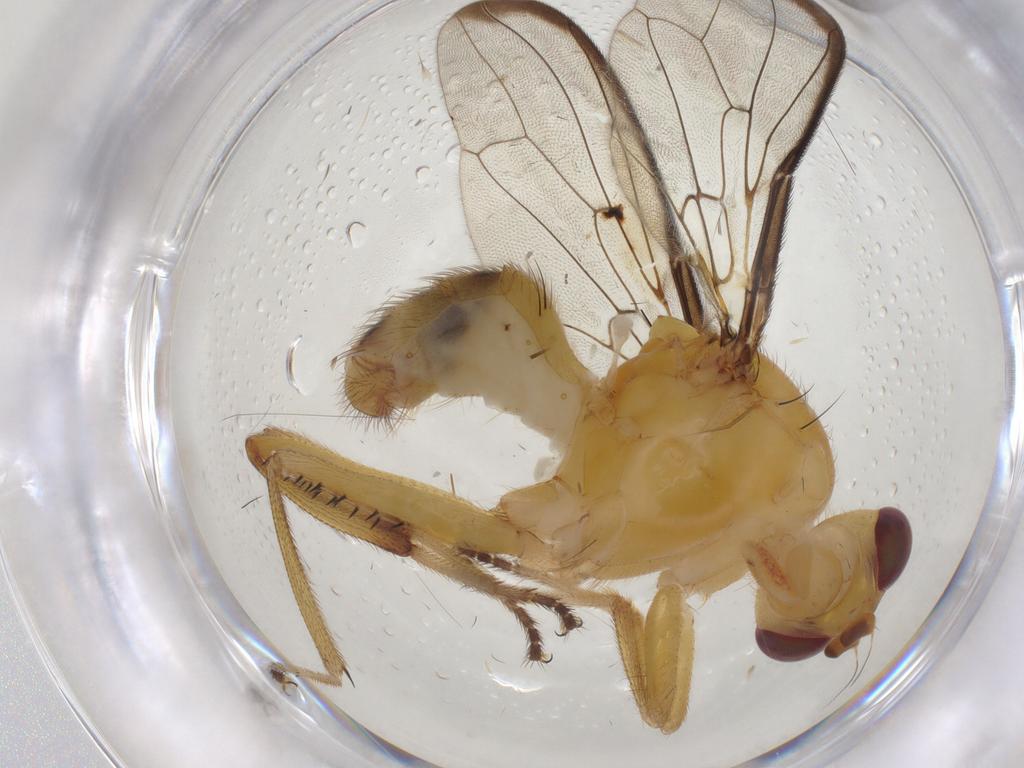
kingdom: Animalia
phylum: Arthropoda
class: Insecta
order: Diptera
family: Richardiidae
